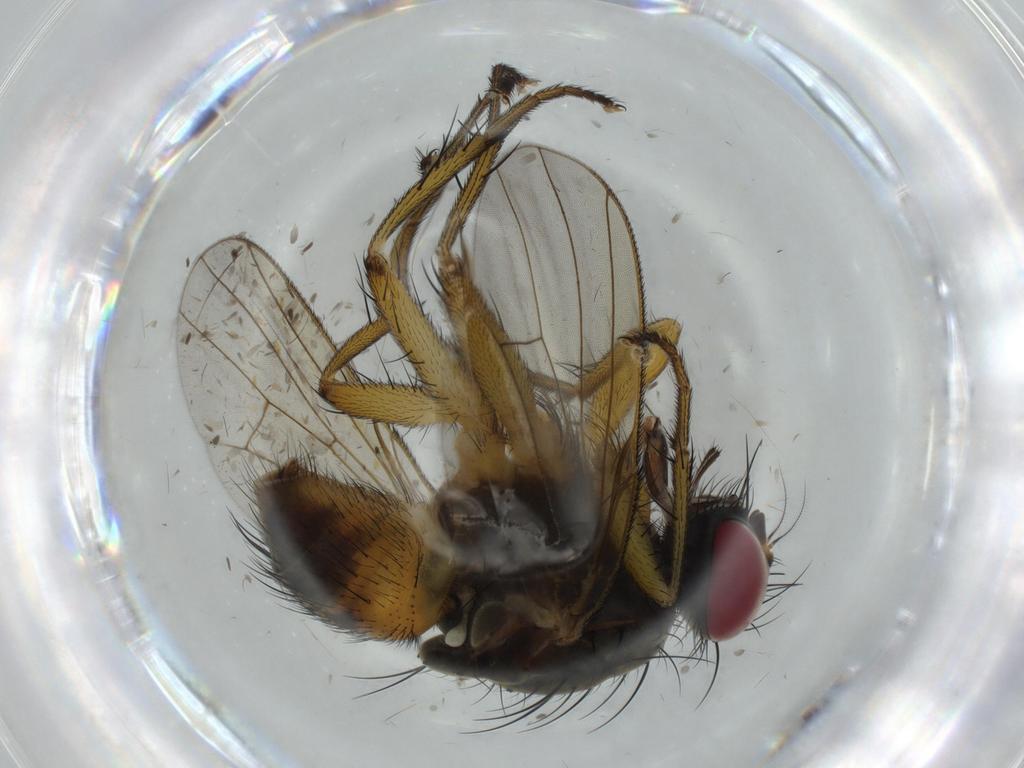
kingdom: Animalia
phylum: Arthropoda
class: Insecta
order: Diptera
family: Muscidae
